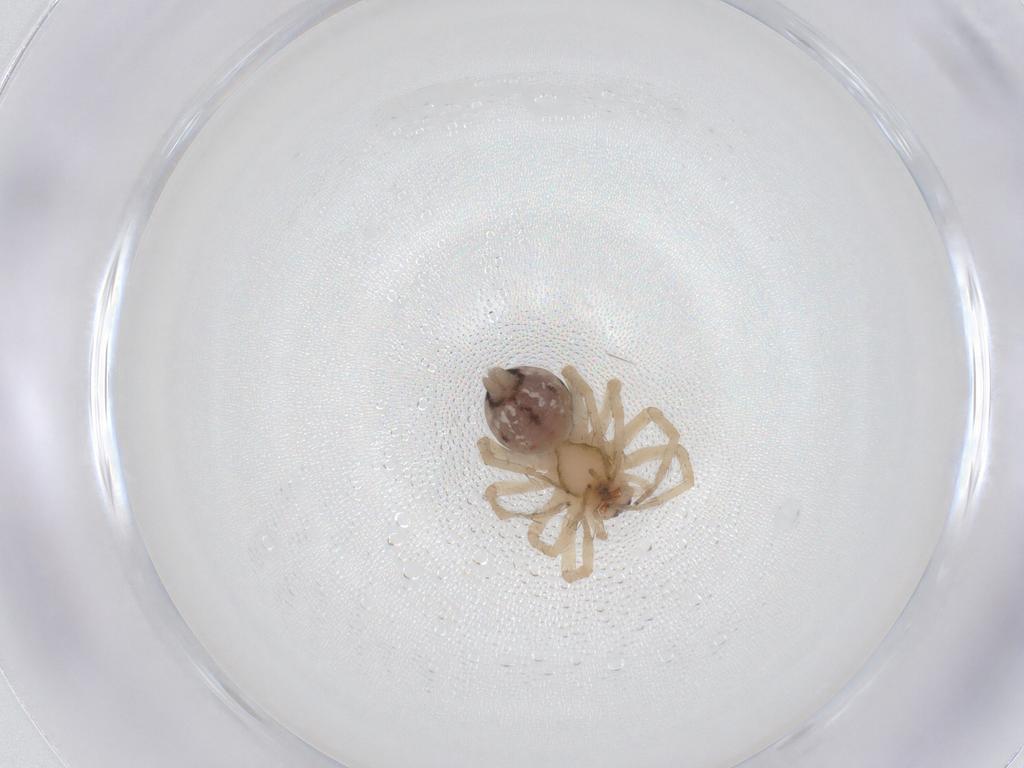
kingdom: Animalia
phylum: Arthropoda
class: Arachnida
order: Araneae
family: Amaurobiidae
